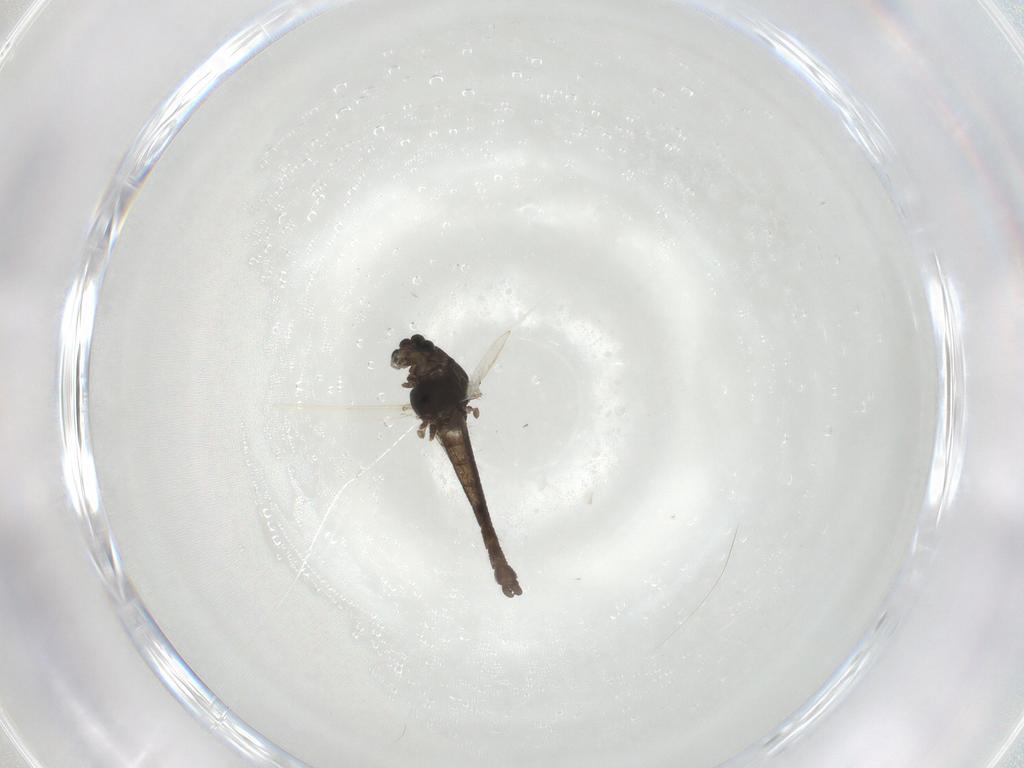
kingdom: Animalia
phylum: Arthropoda
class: Insecta
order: Diptera
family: Chironomidae
